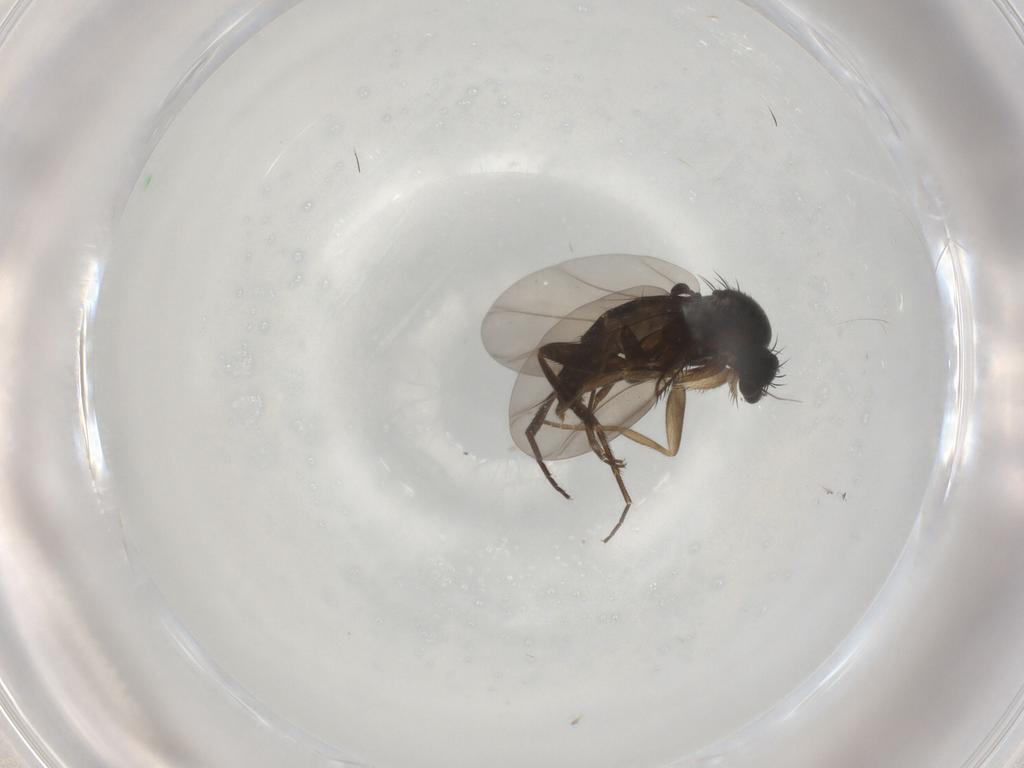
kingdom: Animalia
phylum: Arthropoda
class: Insecta
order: Diptera
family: Phoridae
